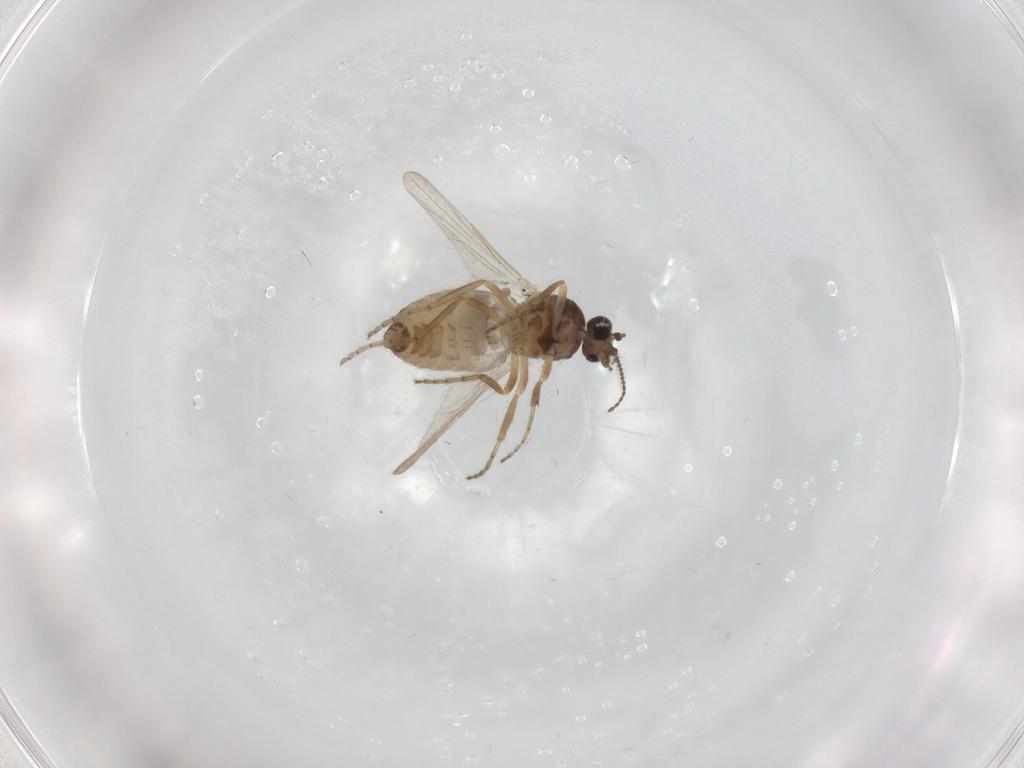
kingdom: Animalia
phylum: Arthropoda
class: Insecta
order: Diptera
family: Ceratopogonidae
